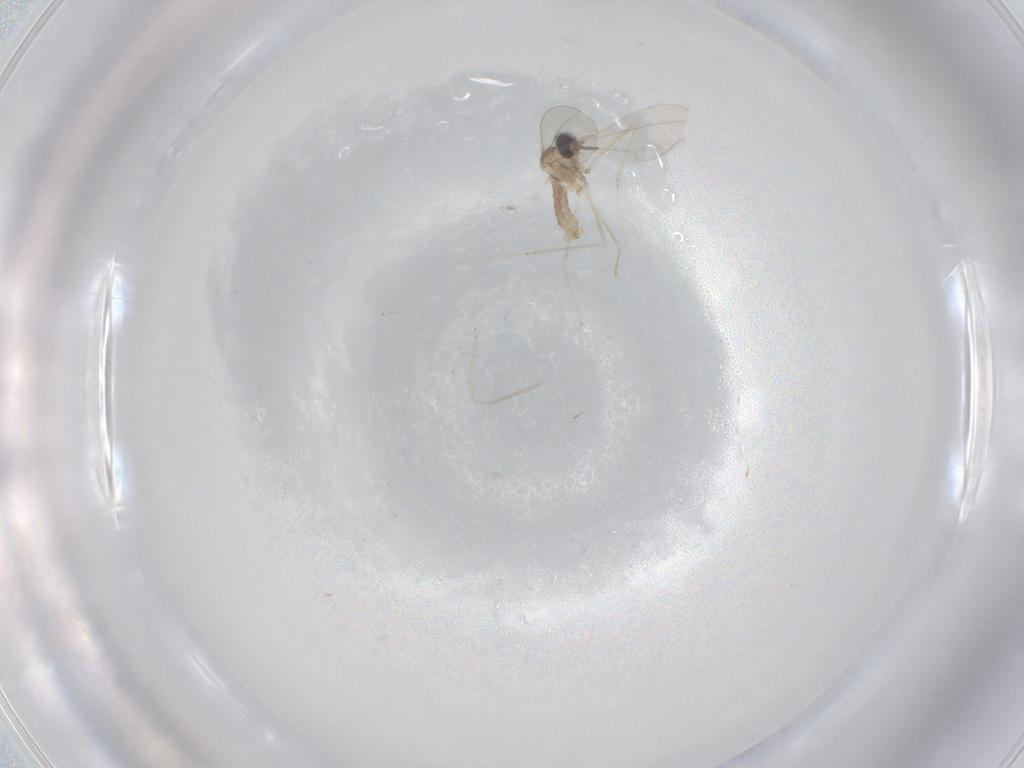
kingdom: Animalia
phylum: Arthropoda
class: Insecta
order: Diptera
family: Cecidomyiidae
